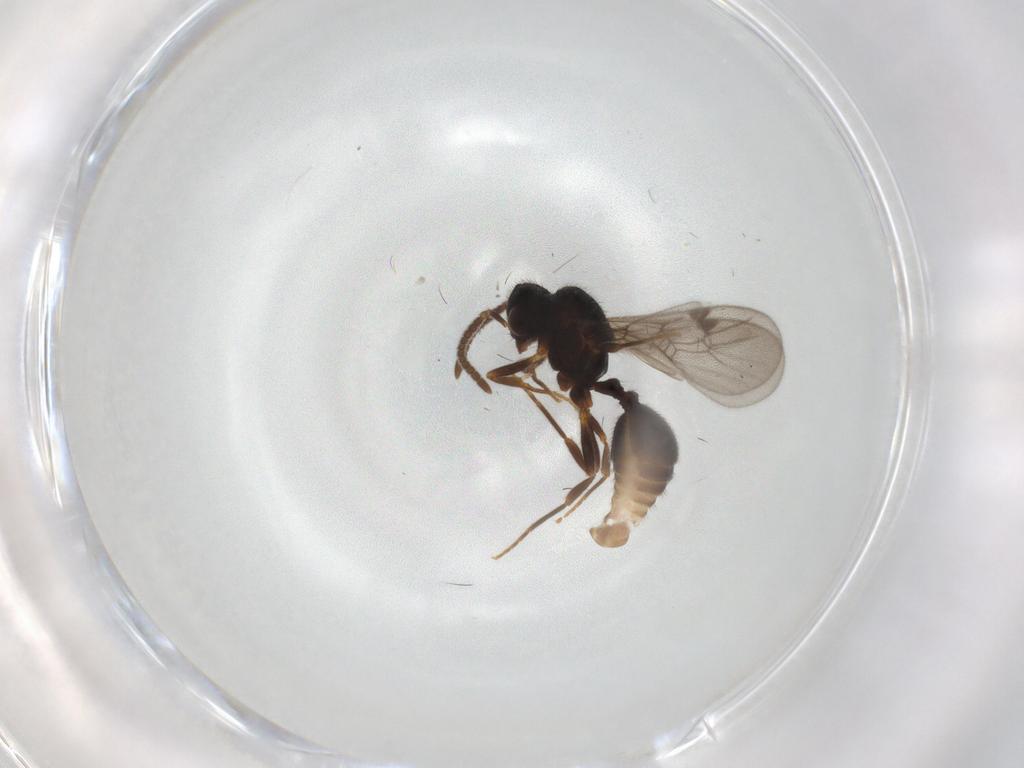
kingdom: Animalia
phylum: Arthropoda
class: Insecta
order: Hymenoptera
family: Formicidae
